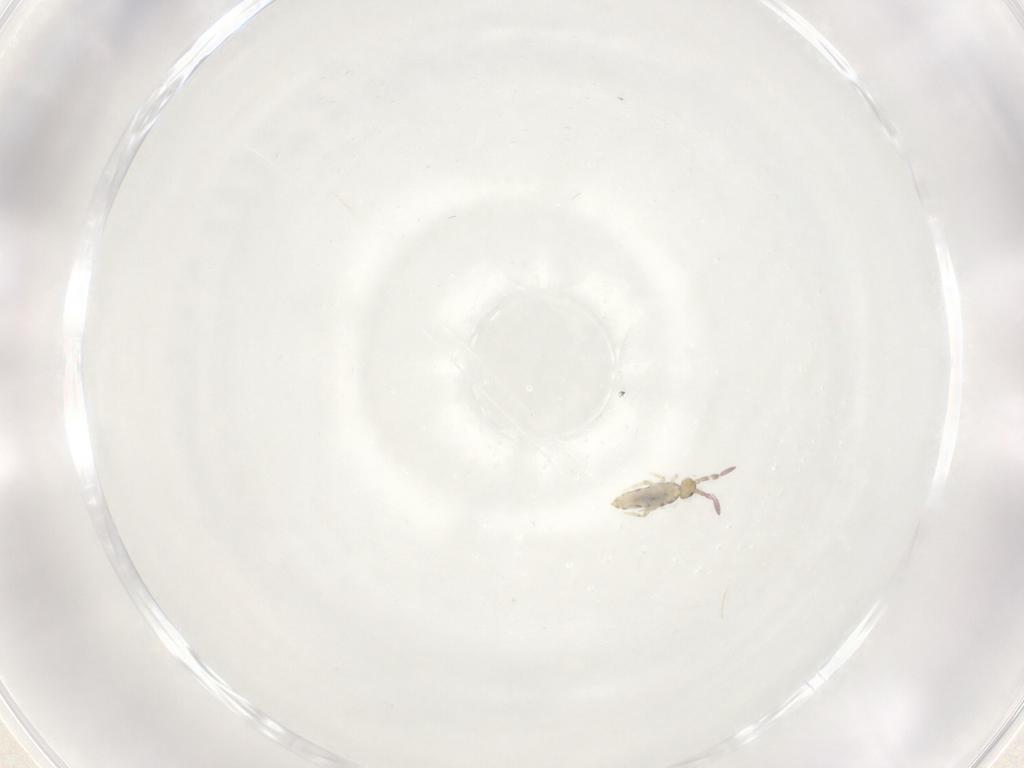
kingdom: Animalia
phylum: Arthropoda
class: Collembola
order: Entomobryomorpha
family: Entomobryidae
